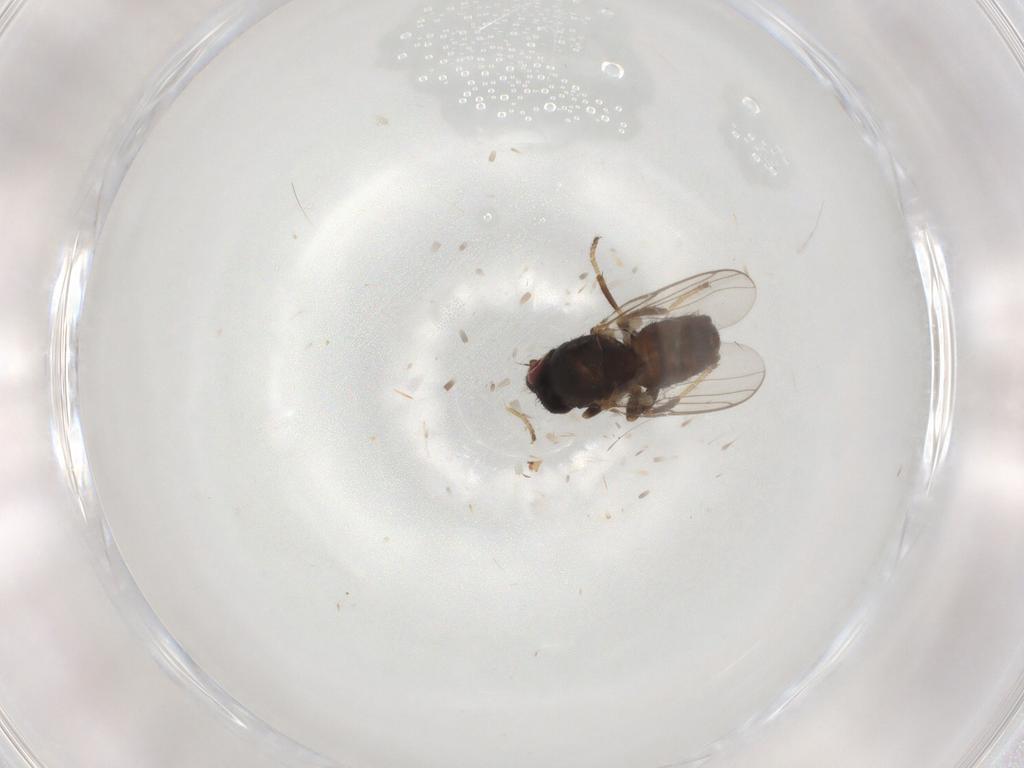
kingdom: Animalia
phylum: Arthropoda
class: Insecta
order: Diptera
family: Chloropidae
